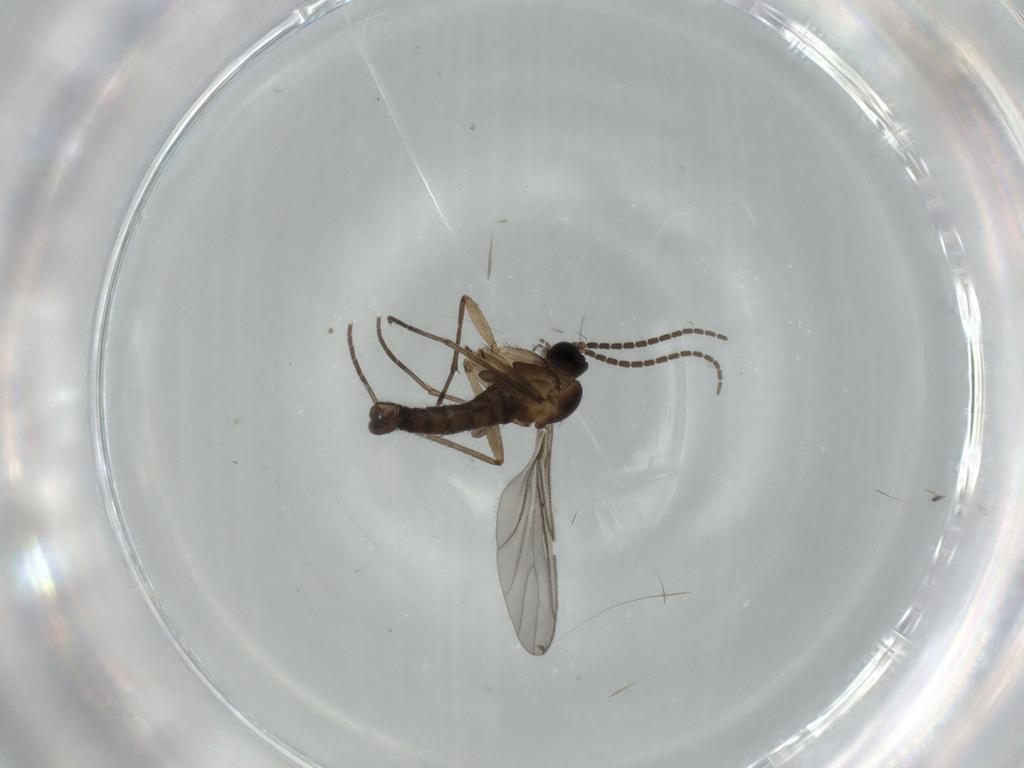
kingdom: Animalia
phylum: Arthropoda
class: Insecta
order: Diptera
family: Sciaridae
